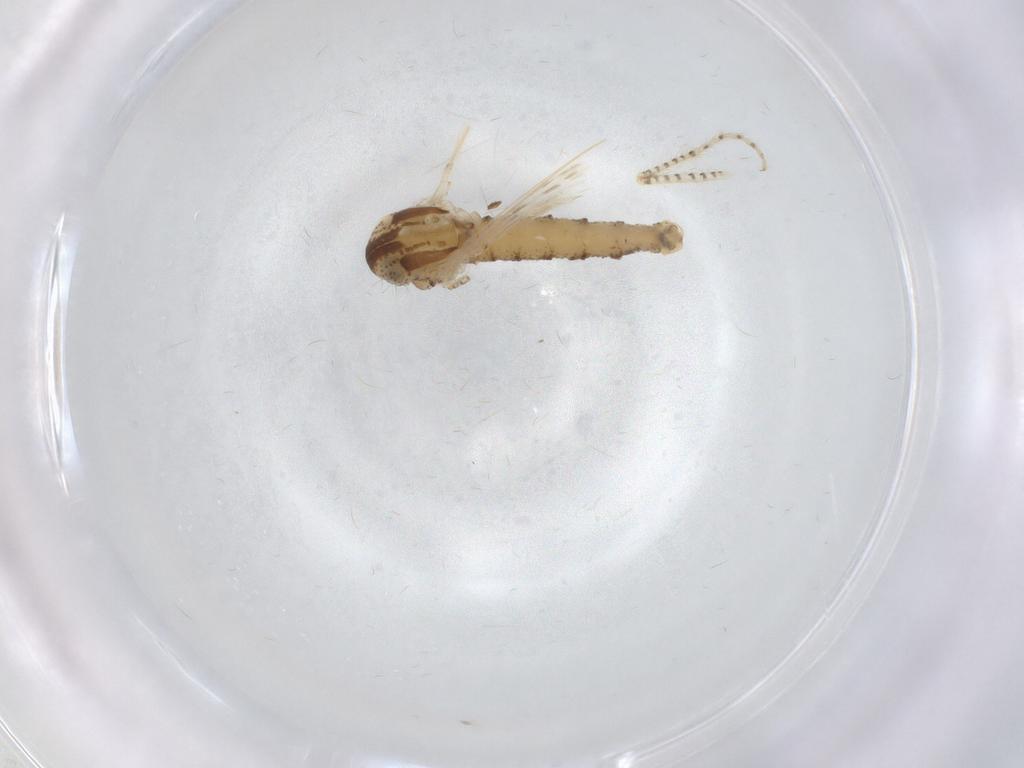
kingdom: Animalia
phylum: Arthropoda
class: Insecta
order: Diptera
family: Chaoboridae
